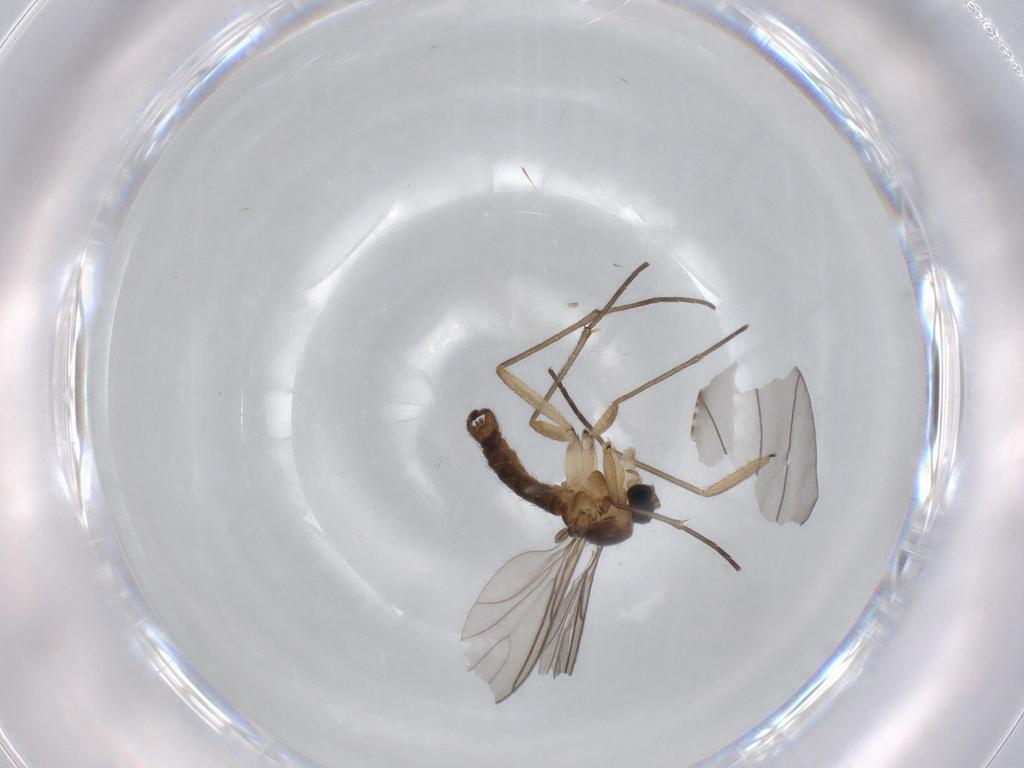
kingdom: Animalia
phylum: Arthropoda
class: Insecta
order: Diptera
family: Sciaridae
